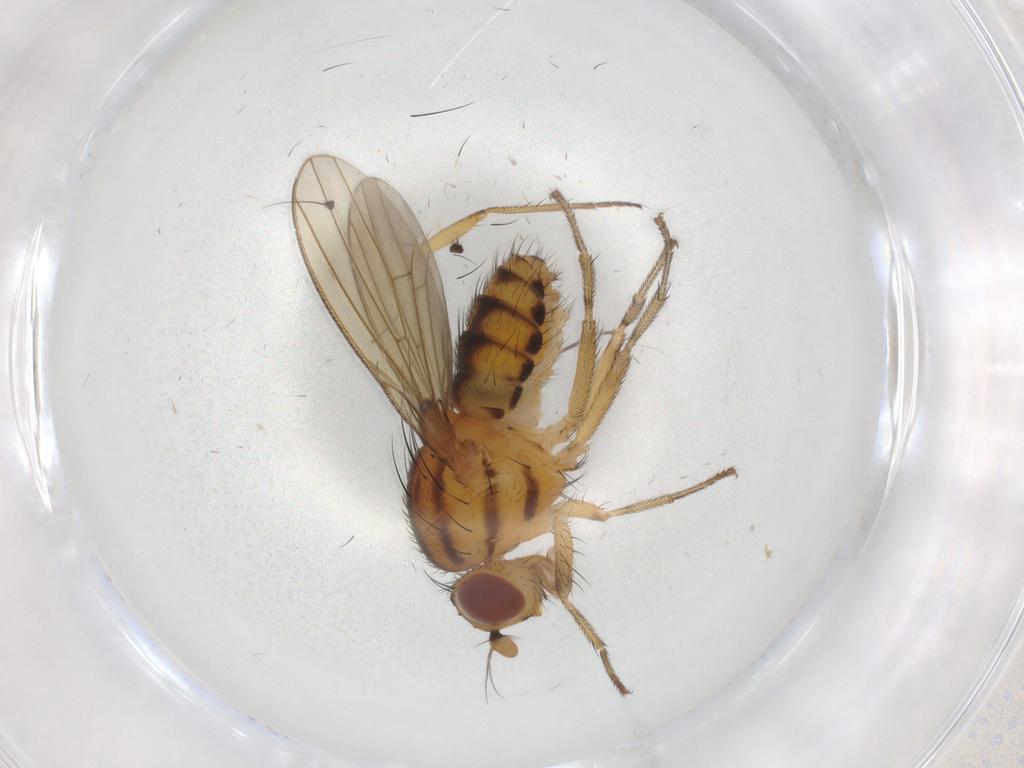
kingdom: Animalia
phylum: Arthropoda
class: Insecta
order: Diptera
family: Chironomidae
